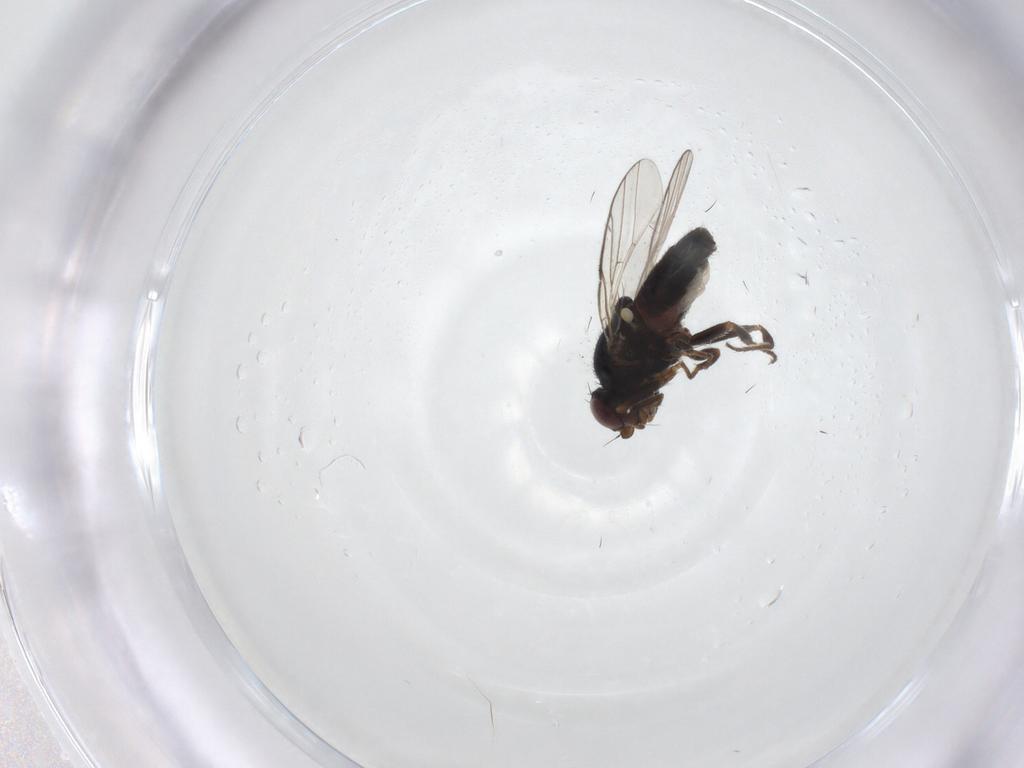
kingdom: Animalia
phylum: Arthropoda
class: Insecta
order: Diptera
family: Chloropidae
